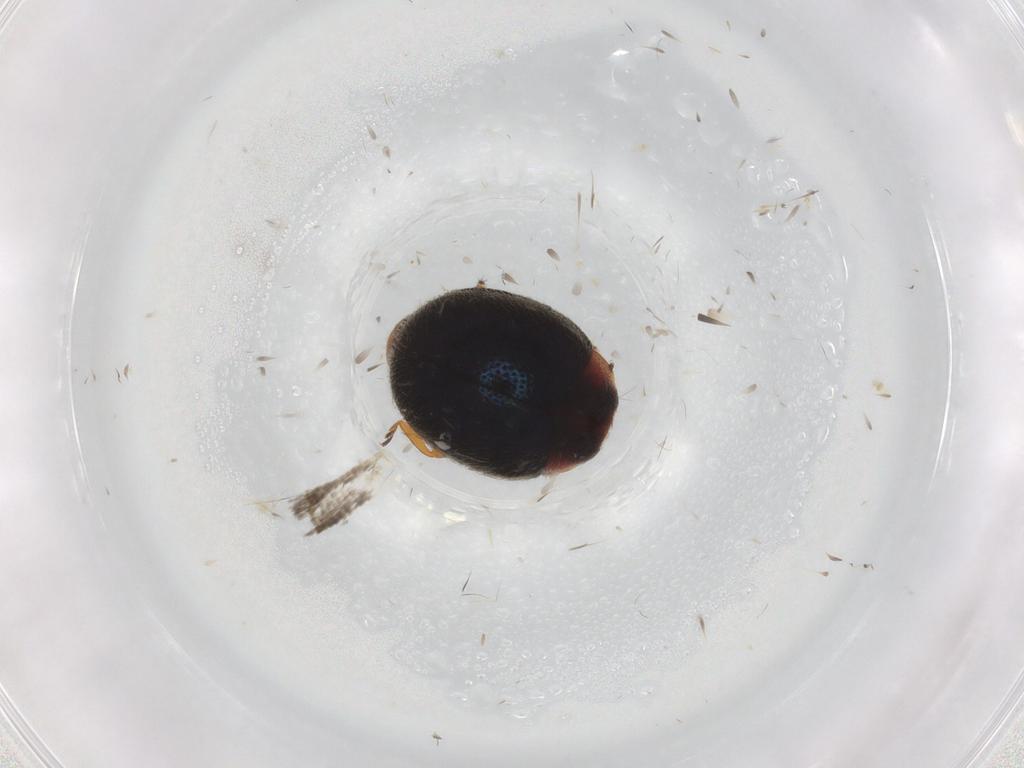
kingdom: Animalia
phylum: Arthropoda
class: Insecta
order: Coleoptera
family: Coccinellidae
